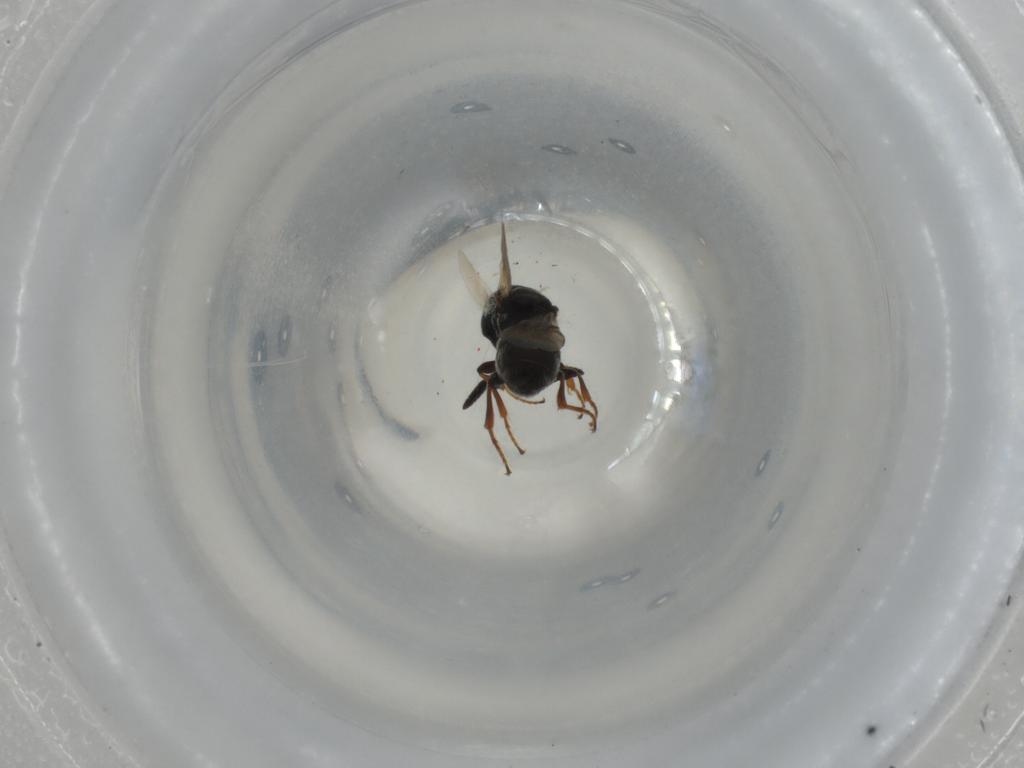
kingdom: Animalia
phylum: Arthropoda
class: Insecta
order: Hymenoptera
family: Scelionidae
